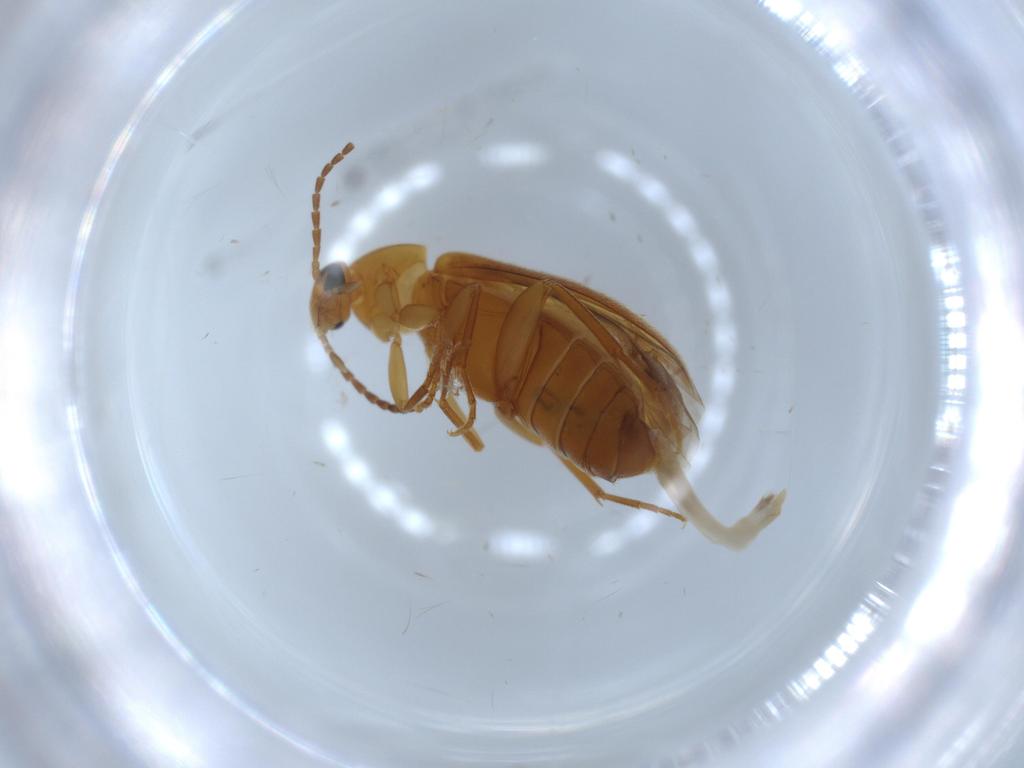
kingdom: Animalia
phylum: Arthropoda
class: Insecta
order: Coleoptera
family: Scraptiidae
